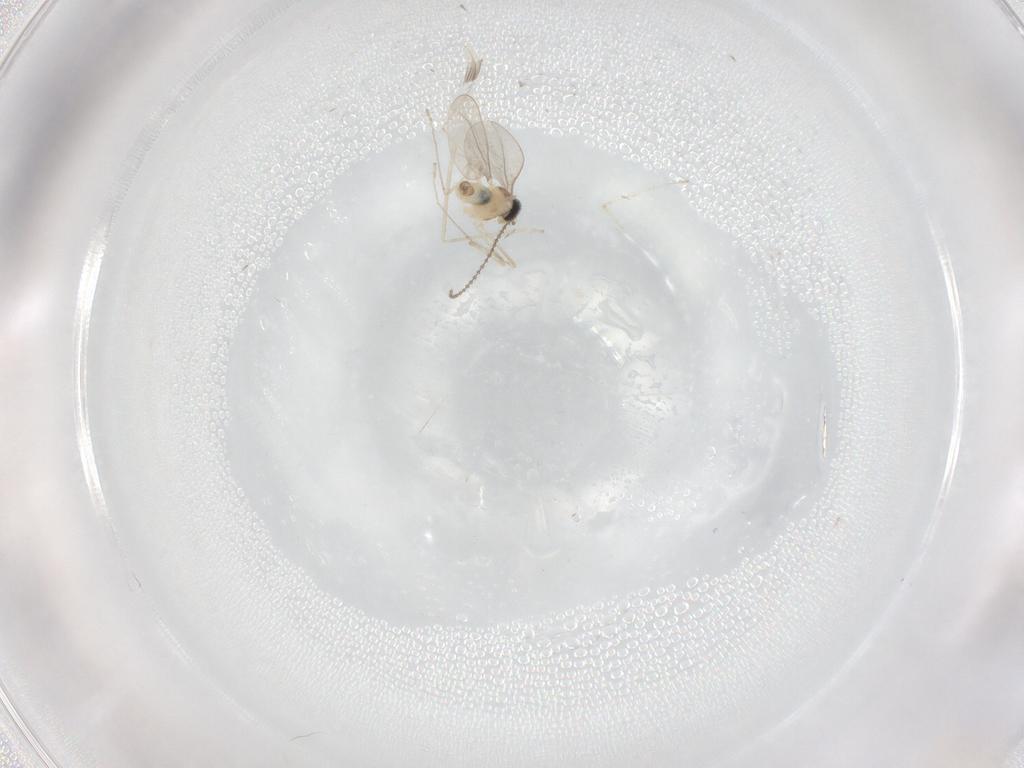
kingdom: Animalia
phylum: Arthropoda
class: Insecta
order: Diptera
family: Cecidomyiidae
